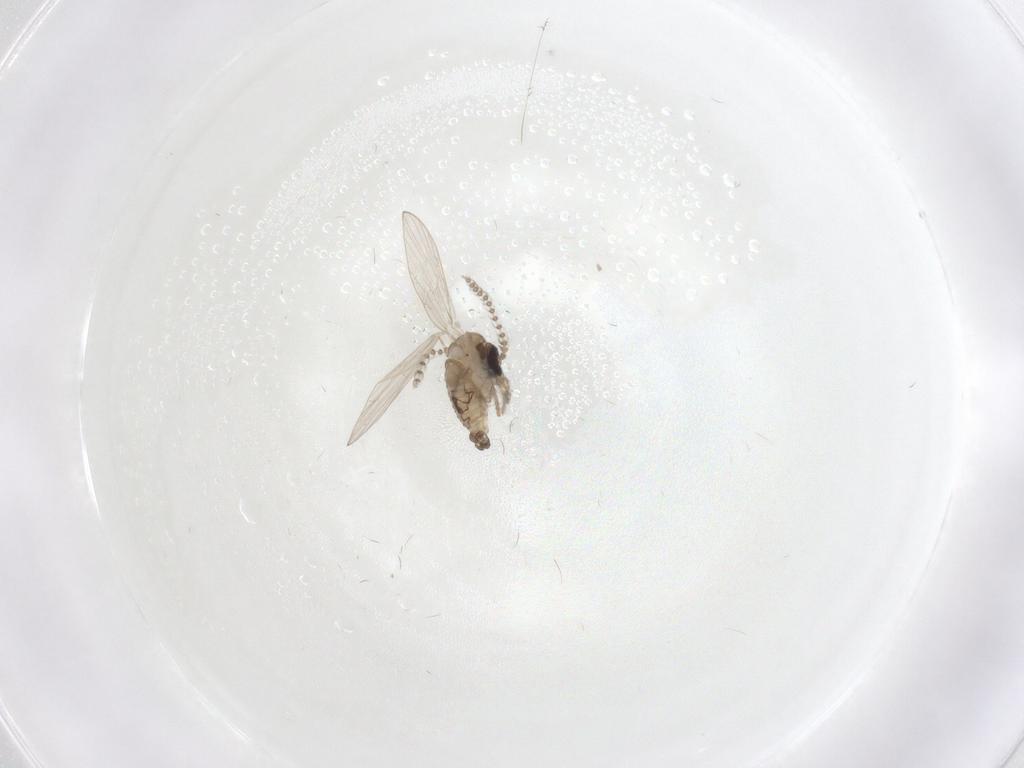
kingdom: Animalia
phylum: Arthropoda
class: Insecta
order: Diptera
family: Psychodidae
